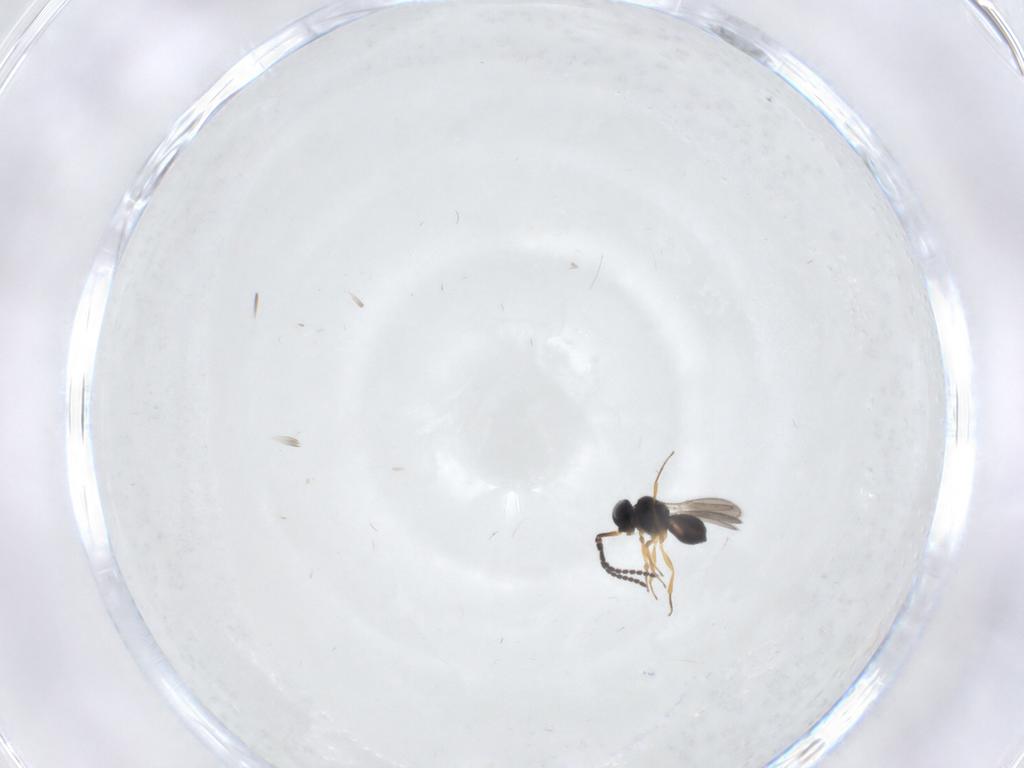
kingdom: Animalia
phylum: Arthropoda
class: Insecta
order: Hymenoptera
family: Scelionidae
